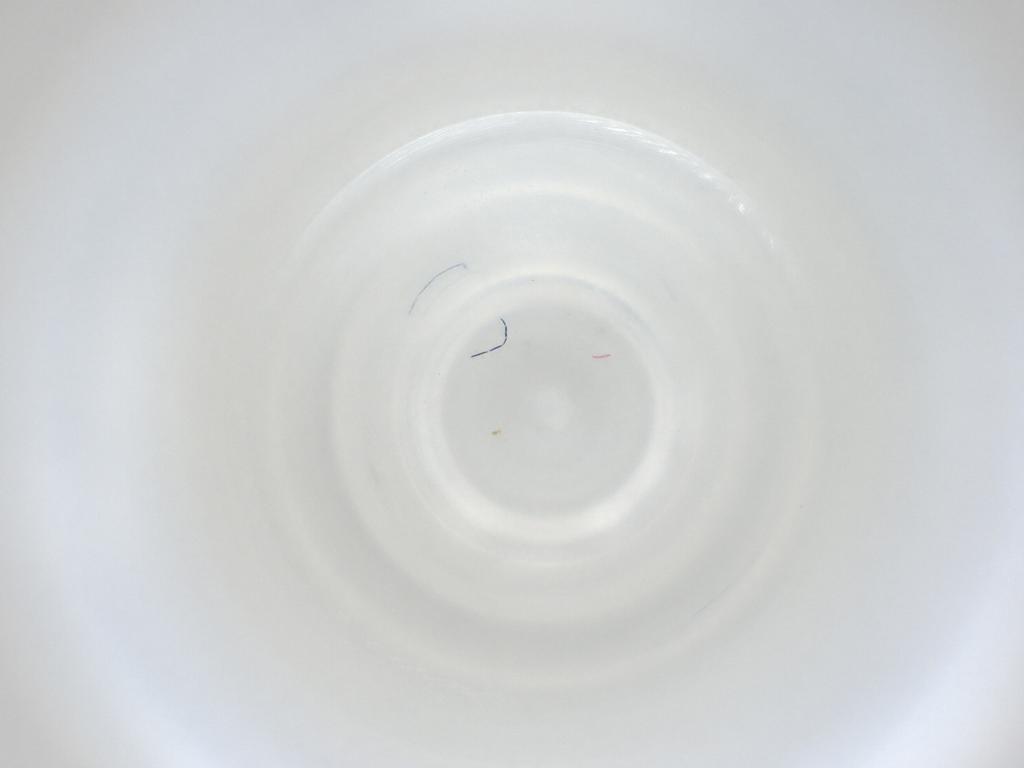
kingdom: Animalia
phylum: Arthropoda
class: Insecta
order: Diptera
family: Cecidomyiidae
